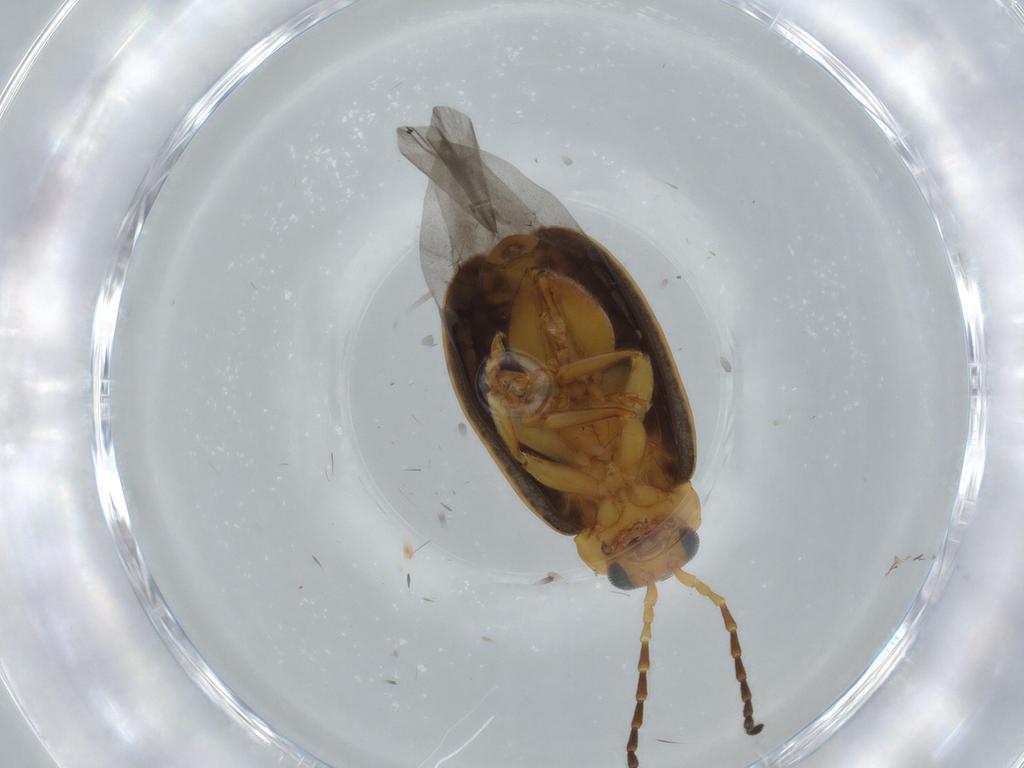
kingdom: Animalia
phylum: Arthropoda
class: Insecta
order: Coleoptera
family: Chrysomelidae
